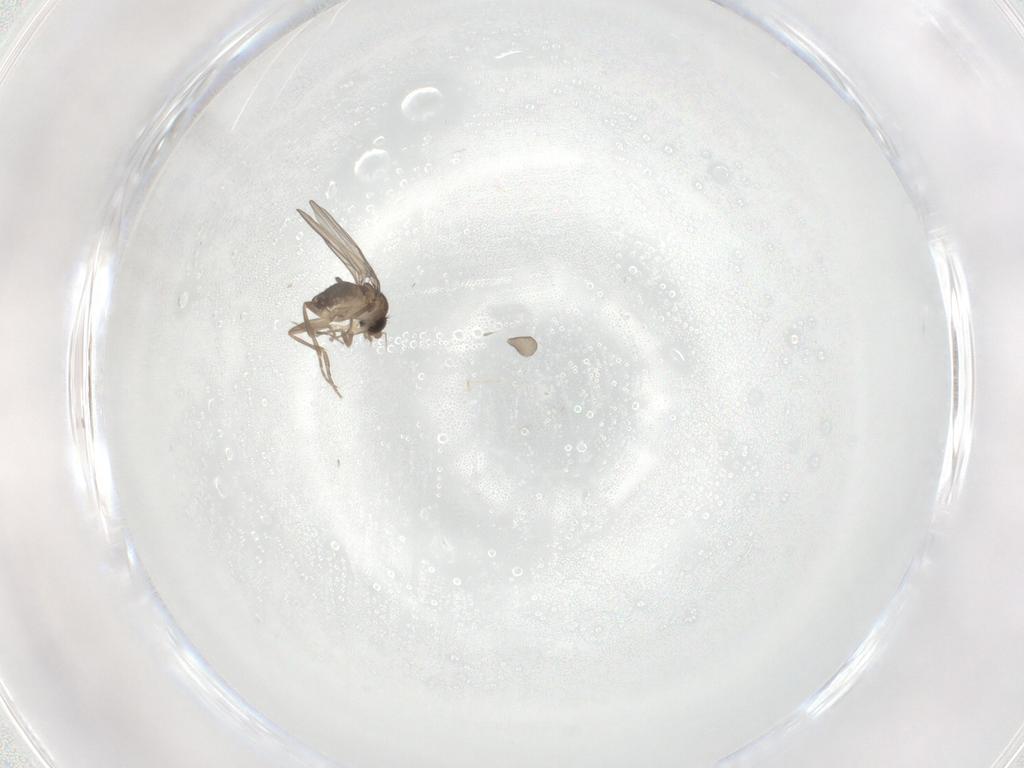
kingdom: Animalia
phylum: Arthropoda
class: Insecta
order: Diptera
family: Psychodidae
